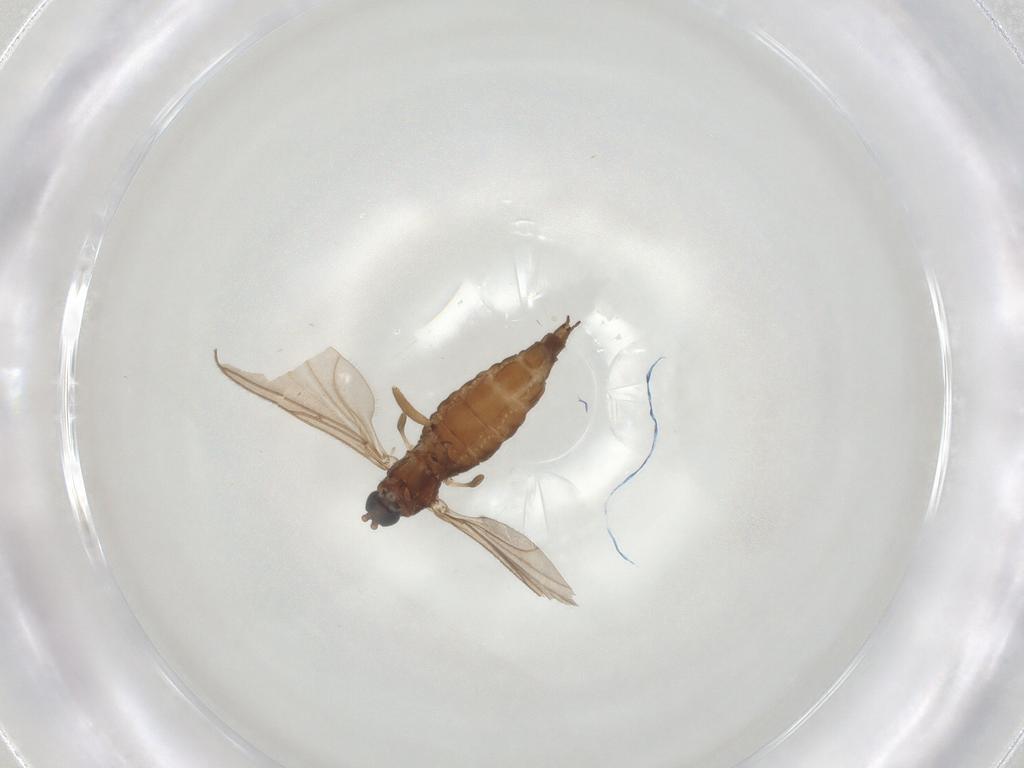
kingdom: Animalia
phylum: Arthropoda
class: Insecta
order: Diptera
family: Sciaridae
